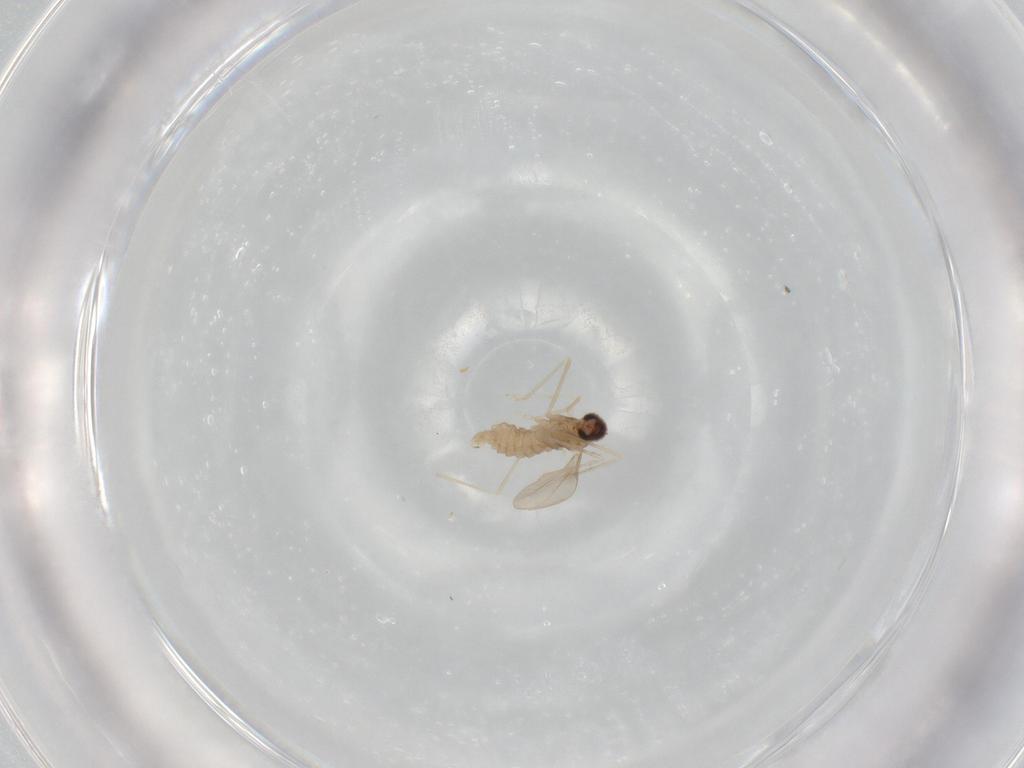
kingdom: Animalia
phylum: Arthropoda
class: Insecta
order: Diptera
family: Cecidomyiidae
